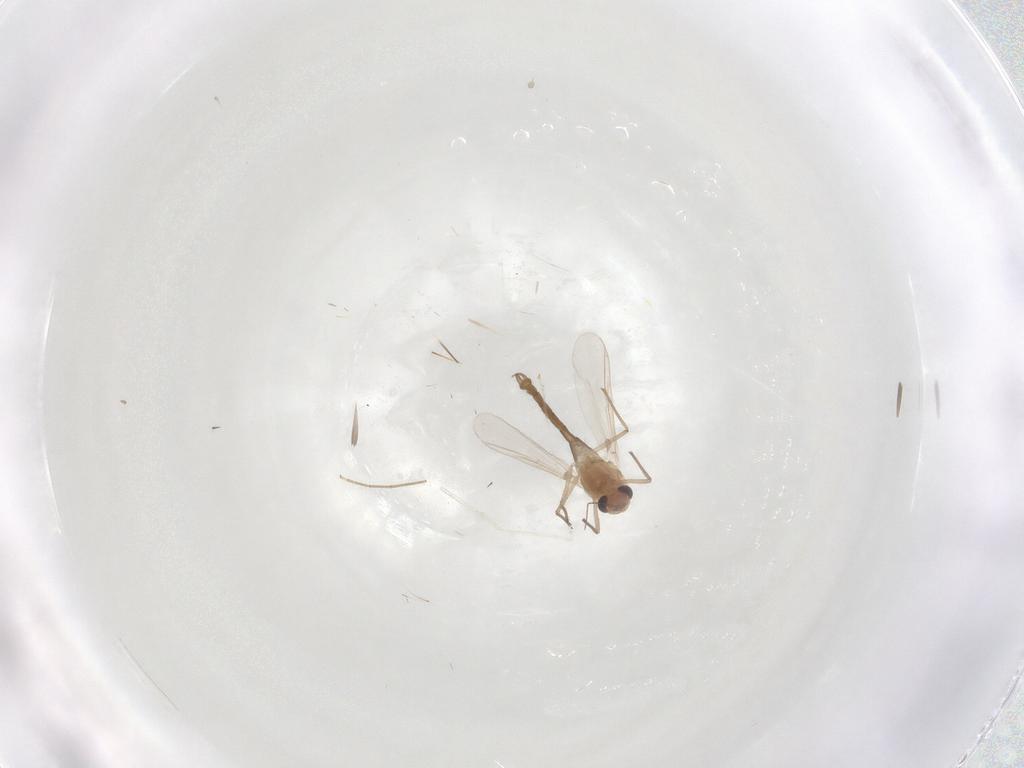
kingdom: Animalia
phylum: Arthropoda
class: Insecta
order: Diptera
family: Chironomidae
